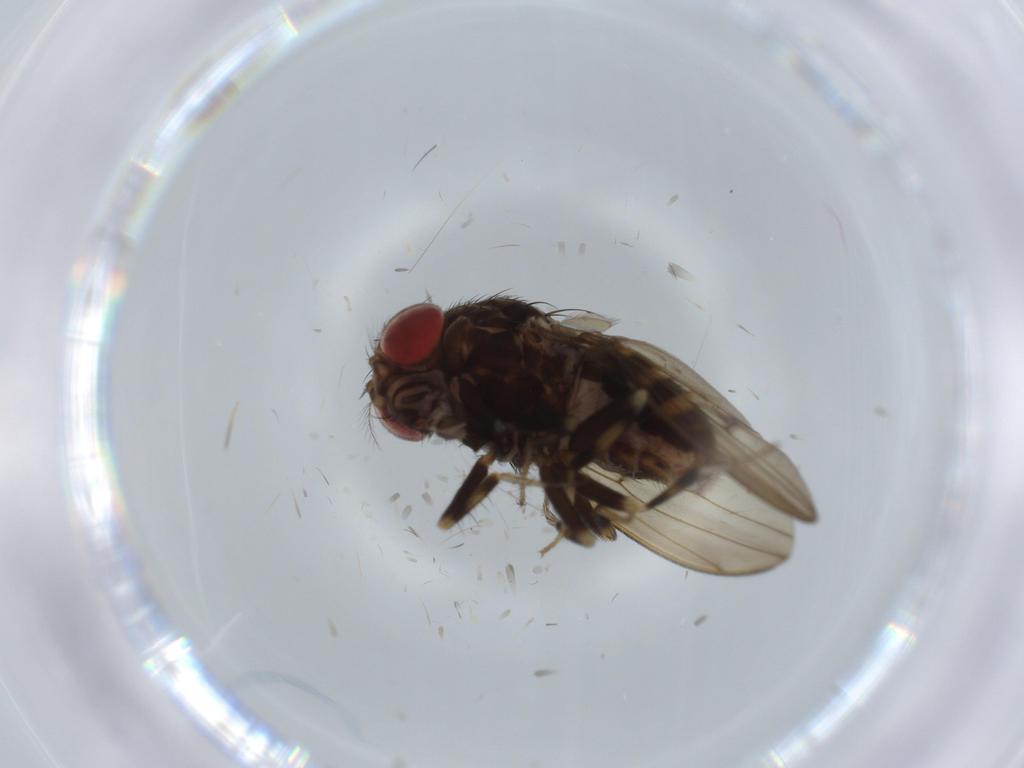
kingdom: Animalia
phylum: Arthropoda
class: Insecta
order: Diptera
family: Drosophilidae
